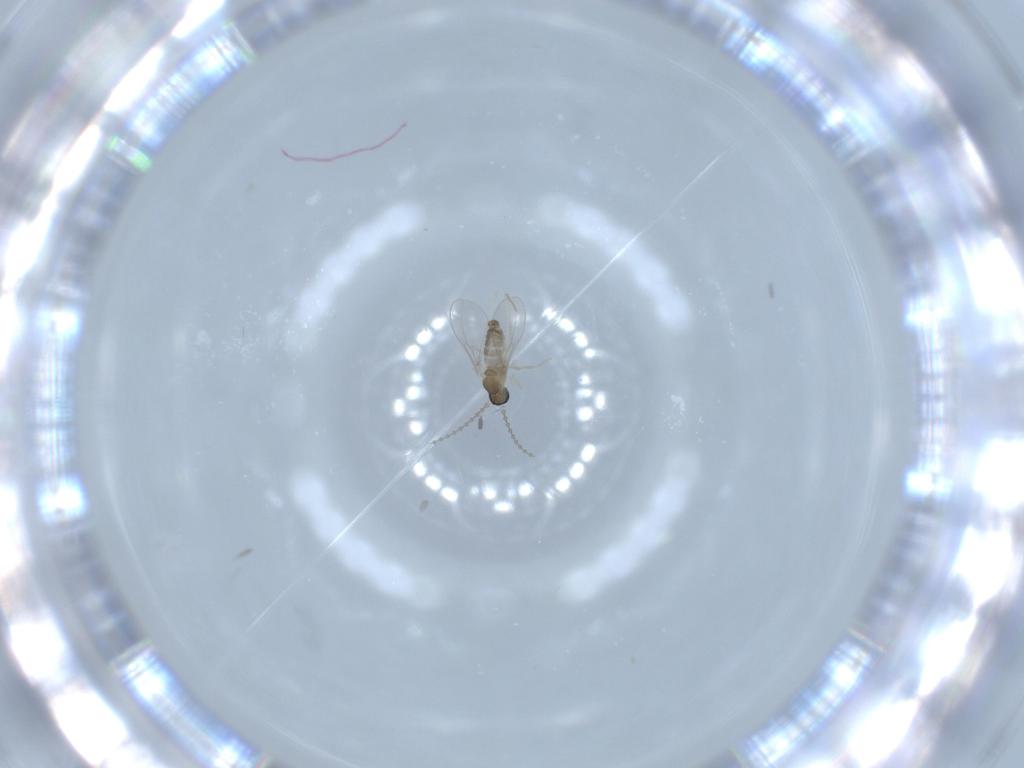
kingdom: Animalia
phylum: Arthropoda
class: Insecta
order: Diptera
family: Cecidomyiidae
